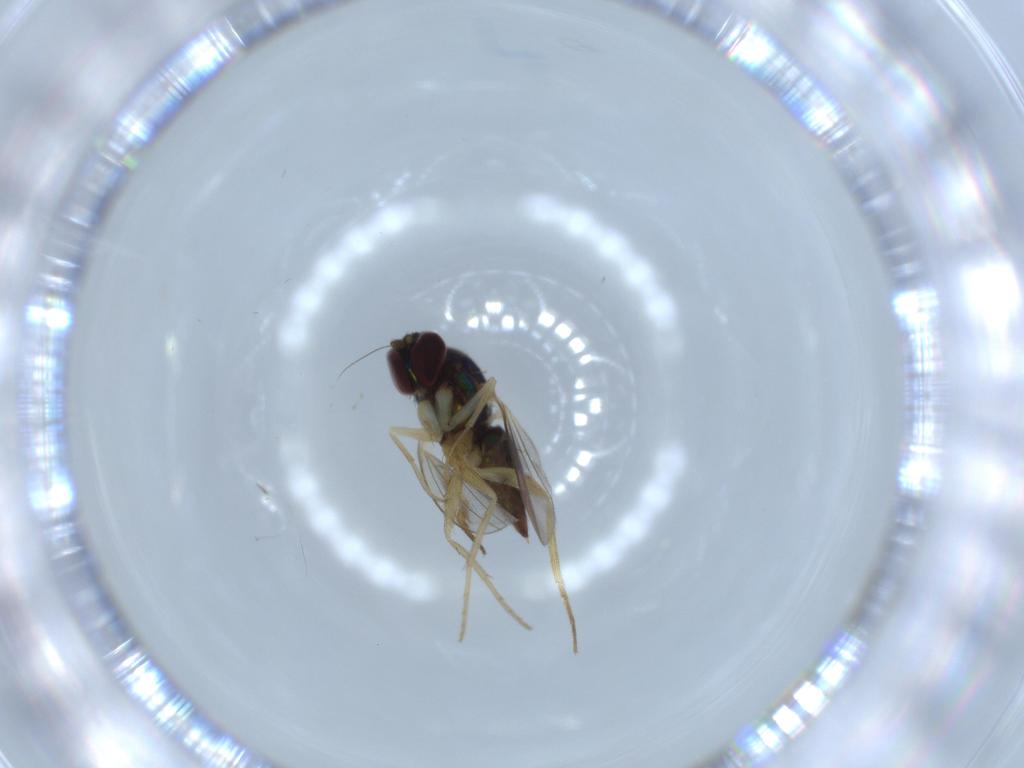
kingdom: Animalia
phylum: Arthropoda
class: Insecta
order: Diptera
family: Dolichopodidae
